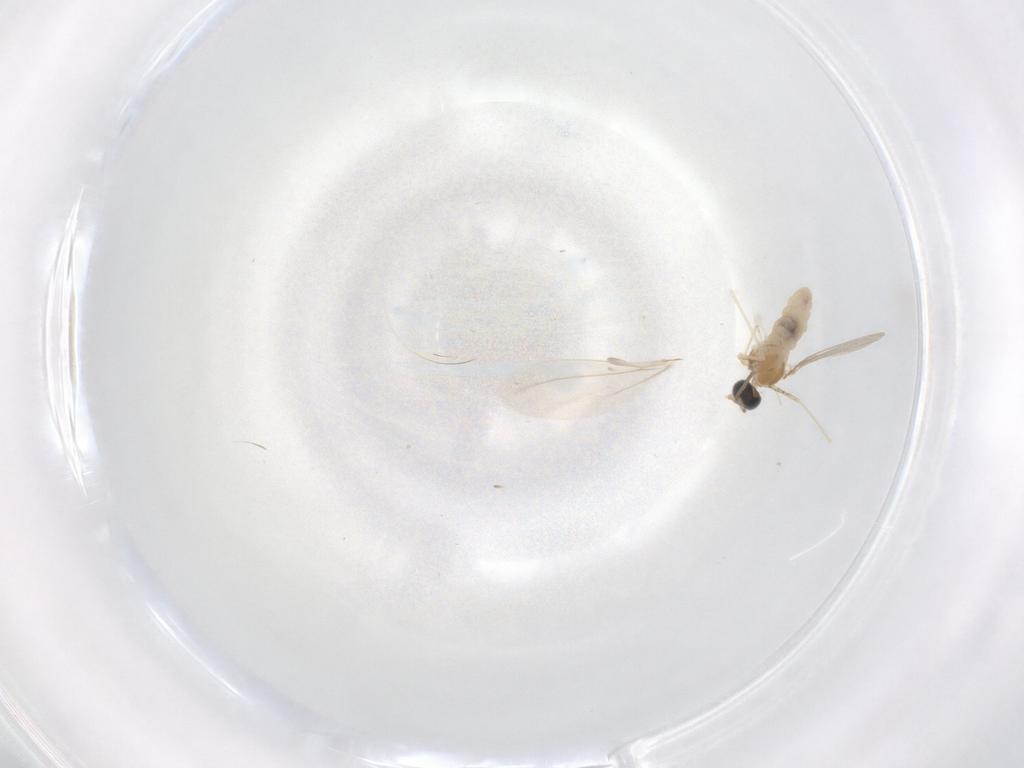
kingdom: Animalia
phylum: Arthropoda
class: Insecta
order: Diptera
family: Cecidomyiidae
